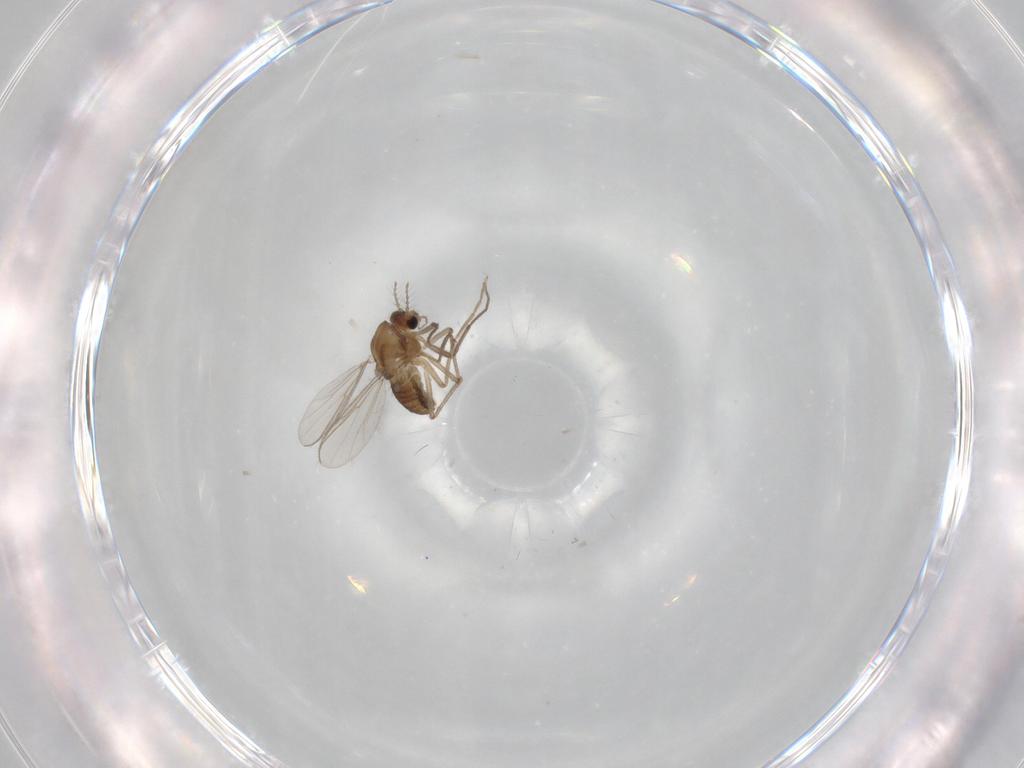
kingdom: Animalia
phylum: Arthropoda
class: Insecta
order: Diptera
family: Chironomidae
